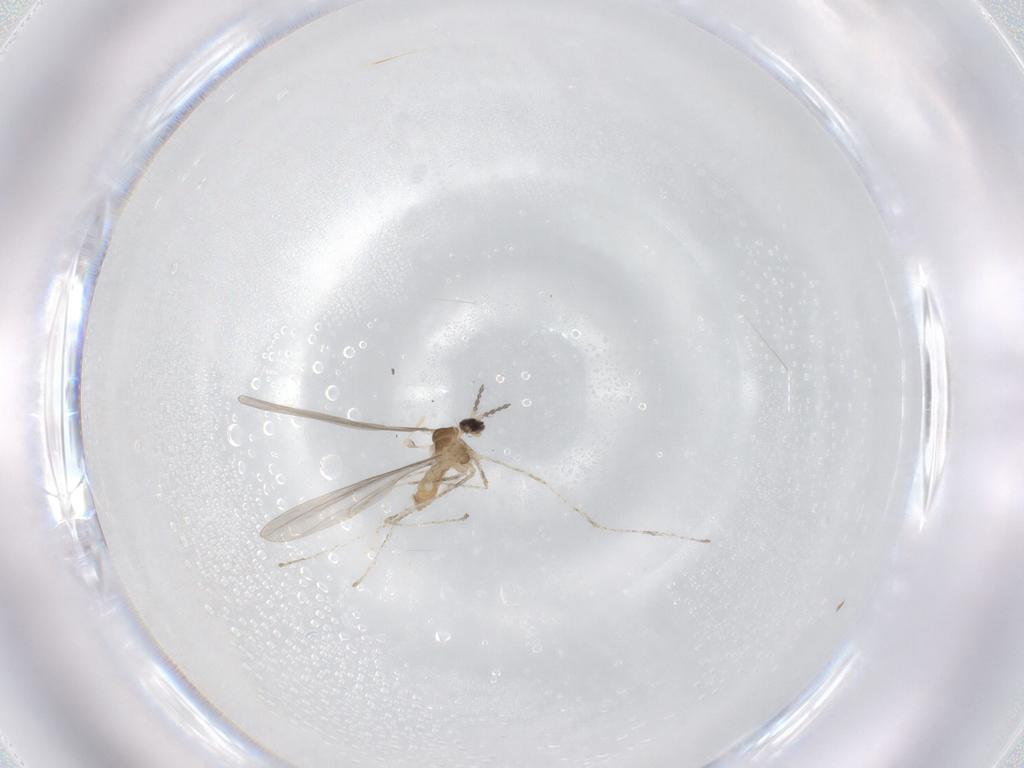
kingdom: Animalia
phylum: Arthropoda
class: Insecta
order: Diptera
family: Cecidomyiidae
